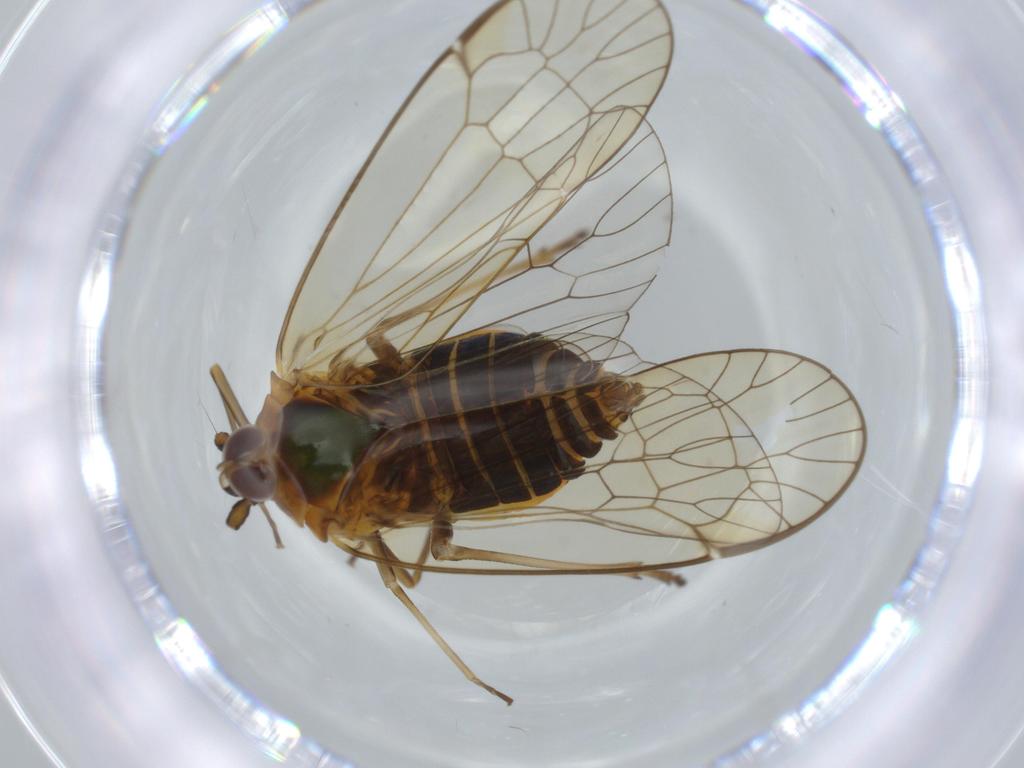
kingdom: Animalia
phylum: Arthropoda
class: Insecta
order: Hemiptera
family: Kinnaridae
